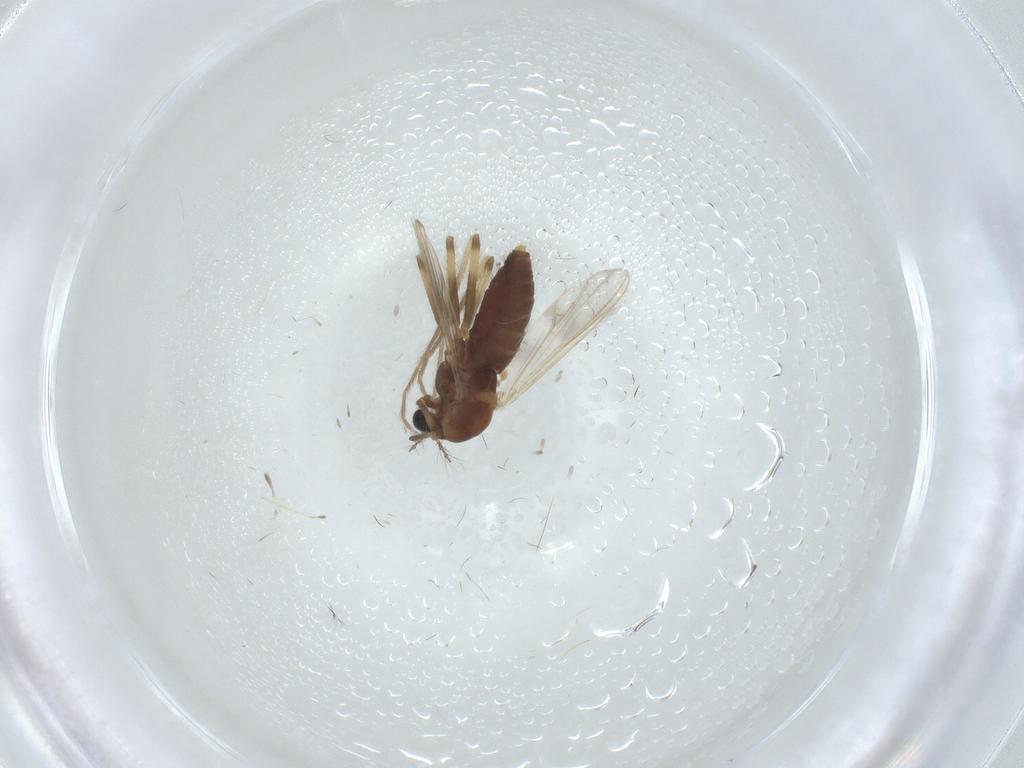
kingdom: Animalia
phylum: Arthropoda
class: Insecta
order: Diptera
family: Chironomidae
